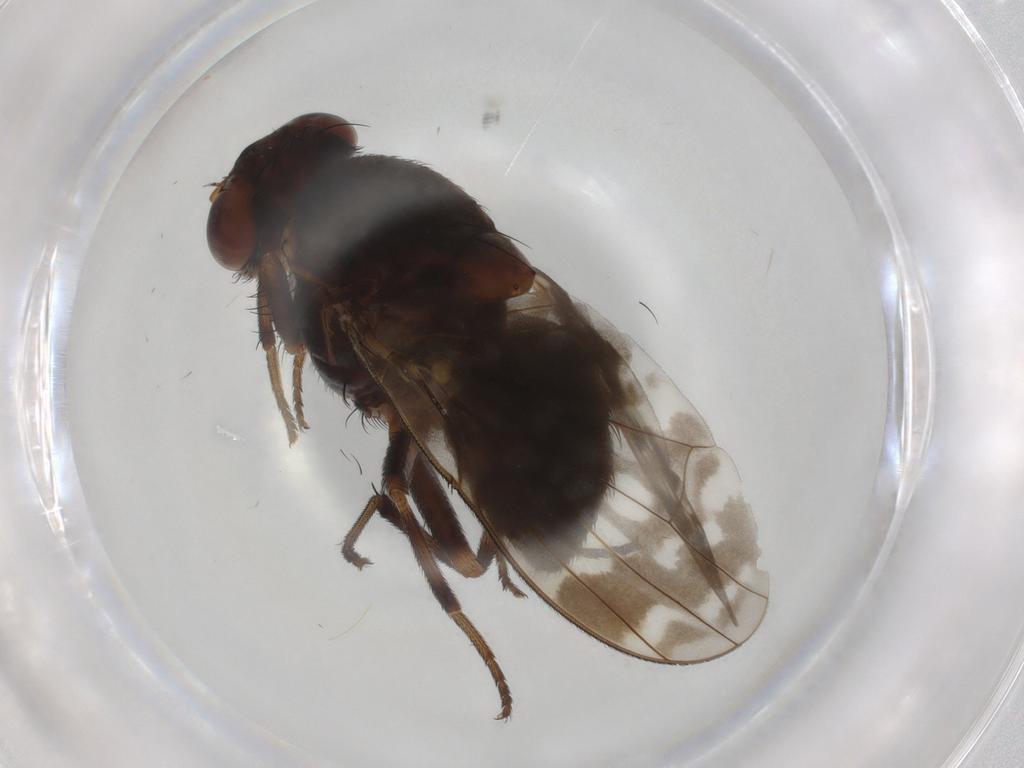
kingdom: Animalia
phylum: Arthropoda
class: Insecta
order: Diptera
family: Lauxaniidae
